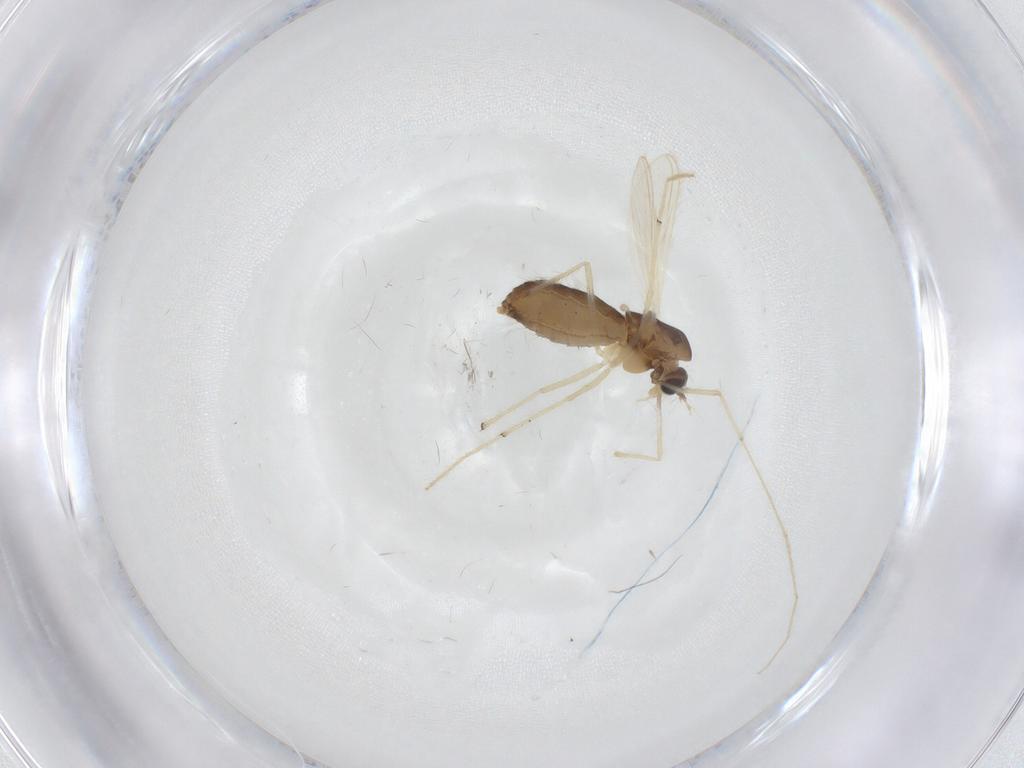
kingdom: Animalia
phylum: Arthropoda
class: Insecta
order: Diptera
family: Chironomidae
